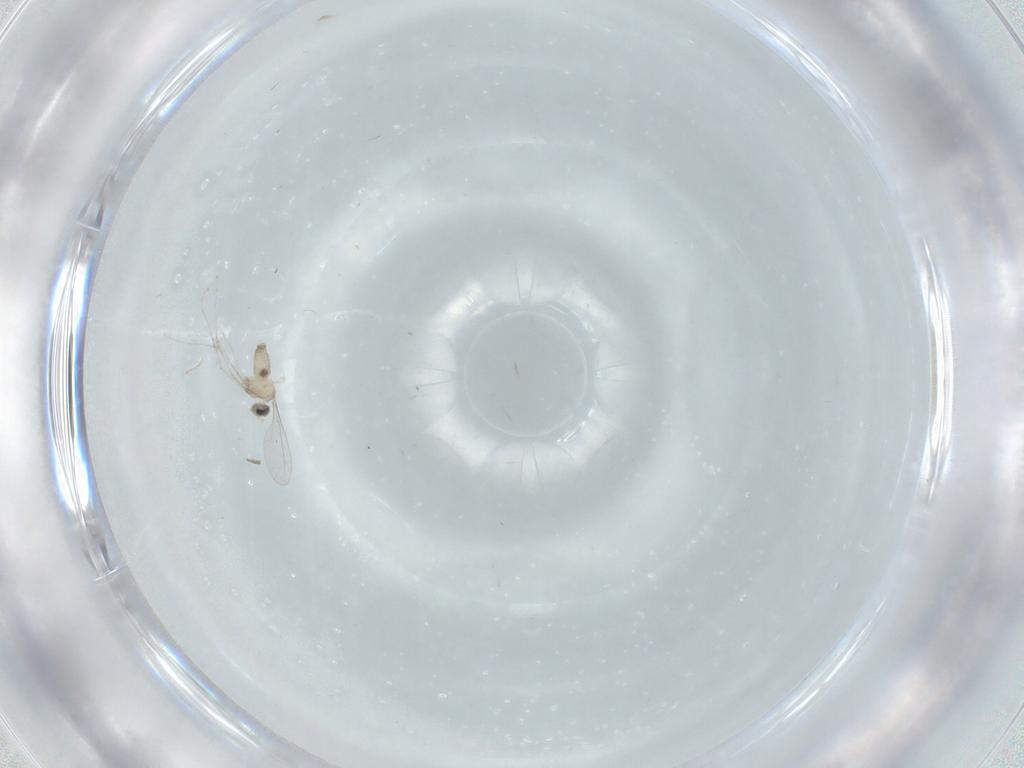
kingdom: Animalia
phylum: Arthropoda
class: Insecta
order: Diptera
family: Cecidomyiidae
